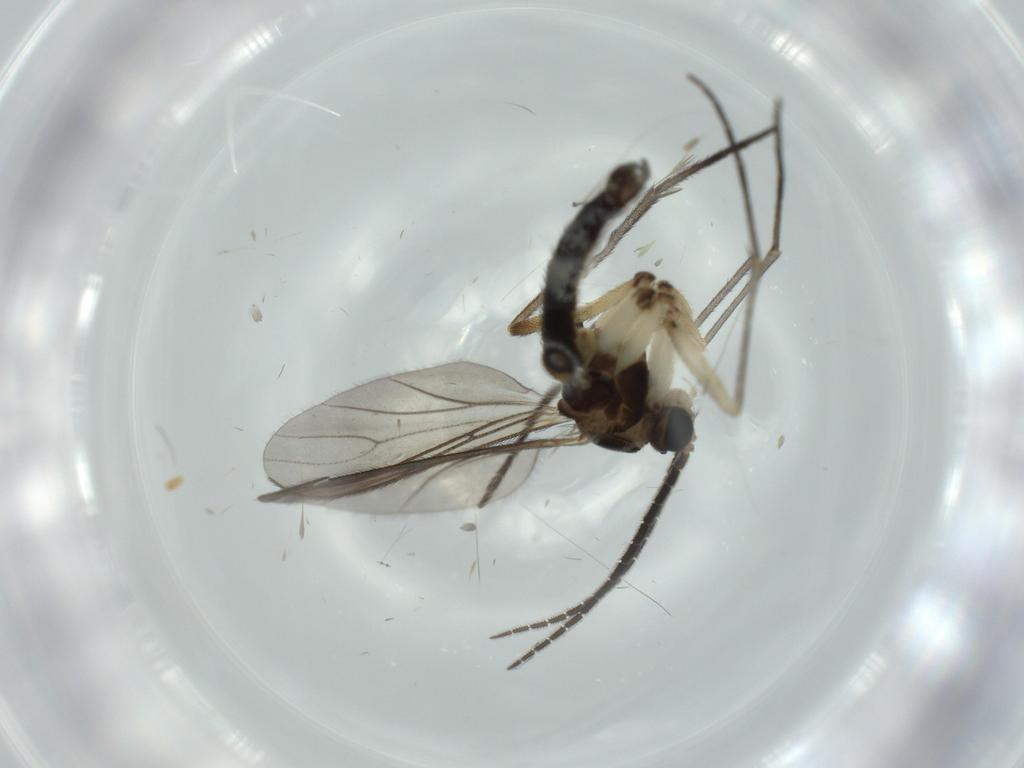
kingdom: Animalia
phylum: Arthropoda
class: Insecta
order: Diptera
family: Sciaridae
